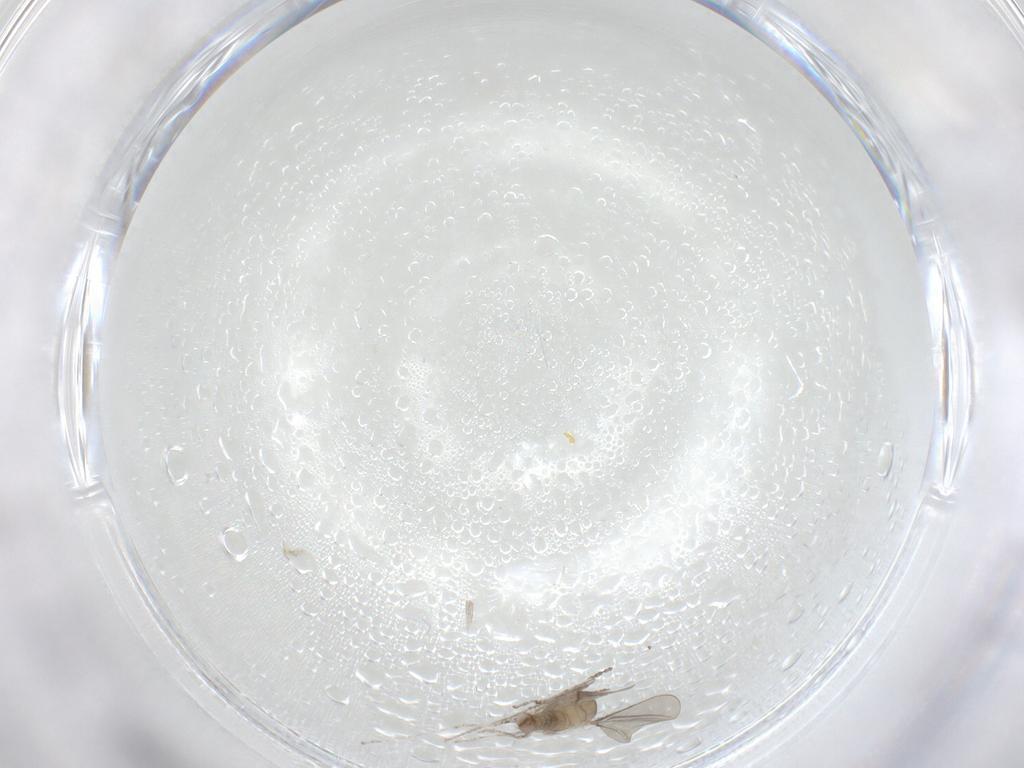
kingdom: Animalia
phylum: Arthropoda
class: Insecta
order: Diptera
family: Cecidomyiidae
